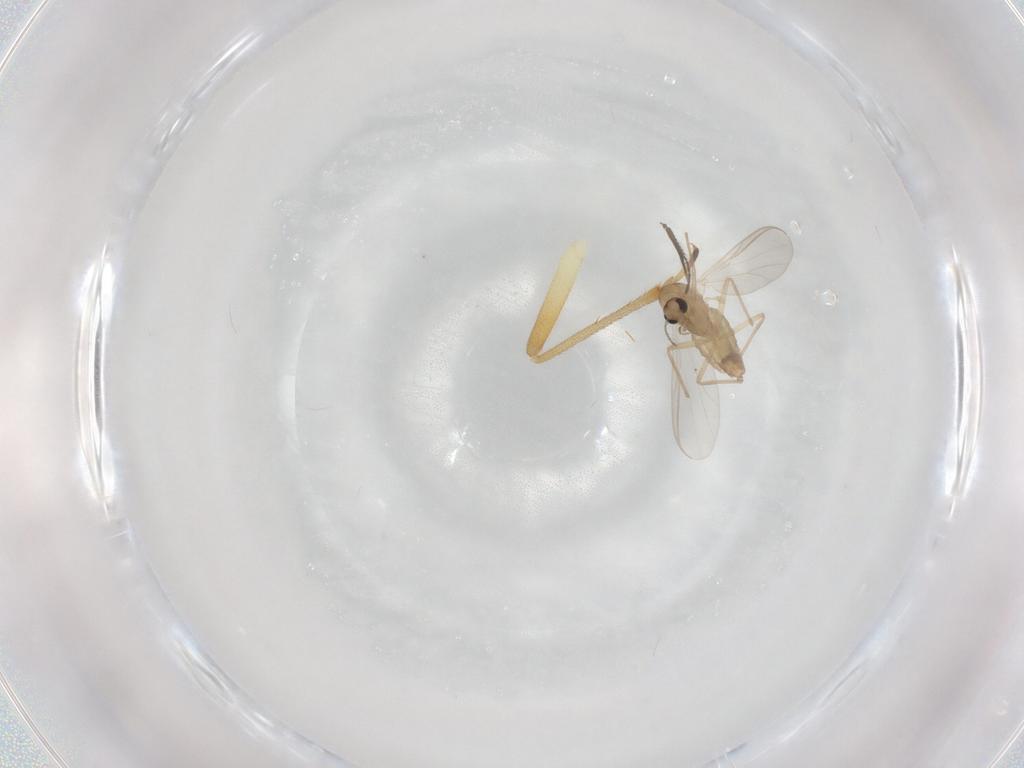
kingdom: Animalia
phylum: Arthropoda
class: Insecta
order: Diptera
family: Chironomidae
